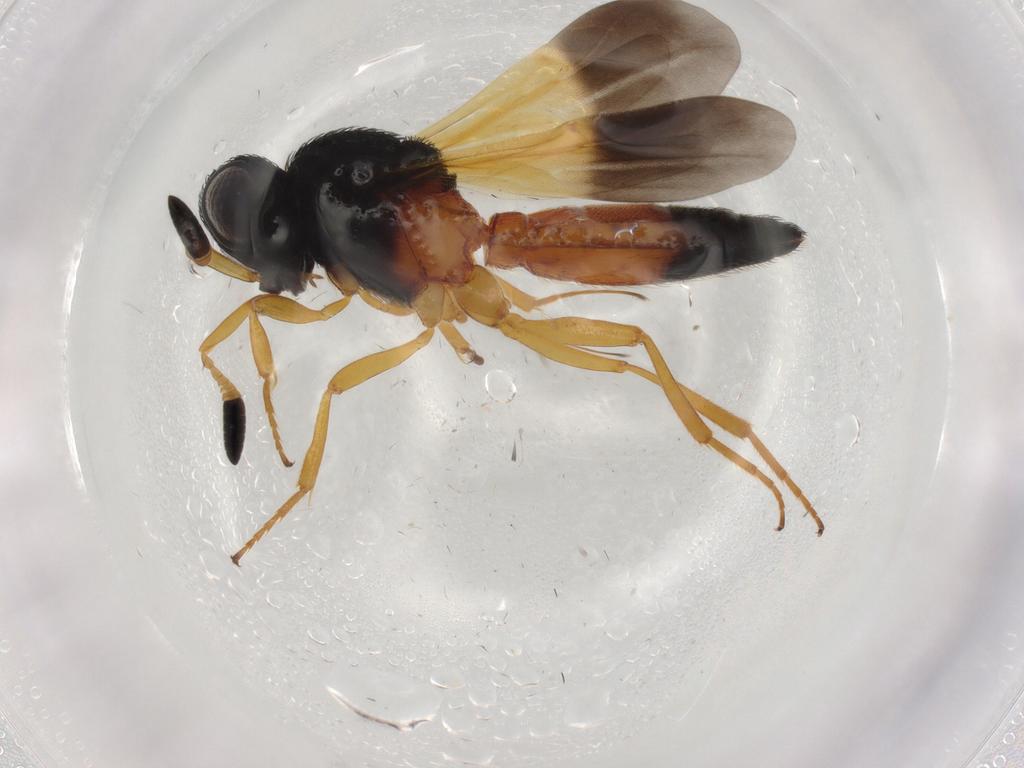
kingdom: Animalia
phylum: Arthropoda
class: Insecta
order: Hymenoptera
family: Scelionidae
